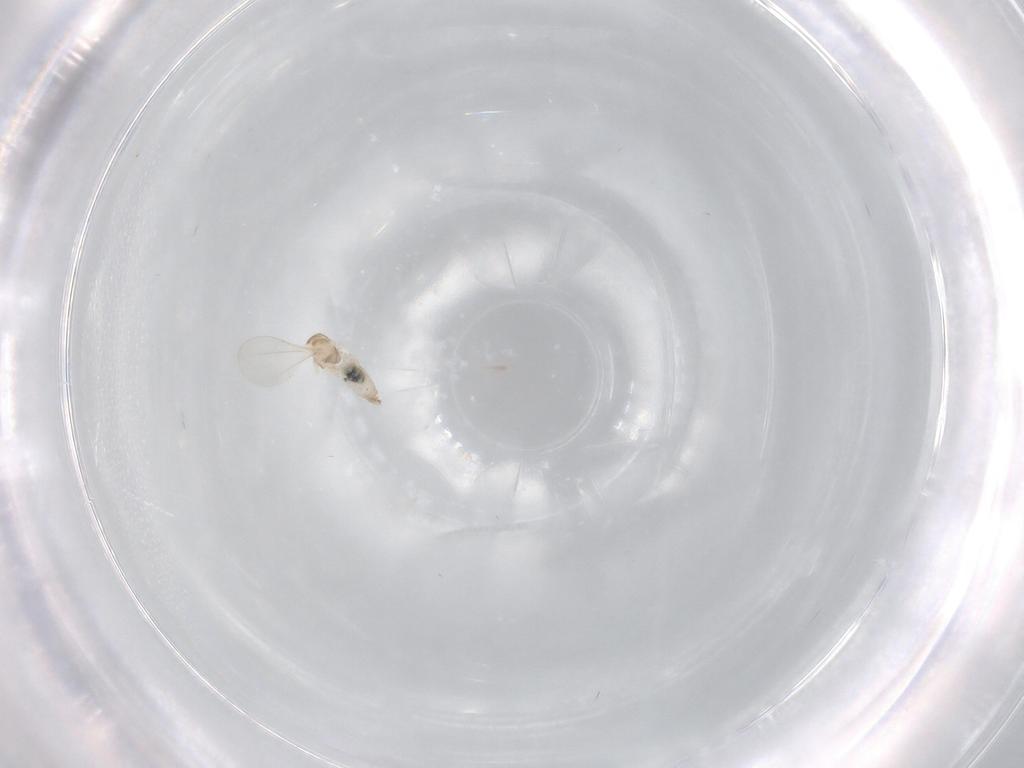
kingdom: Animalia
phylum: Arthropoda
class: Insecta
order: Diptera
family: Cecidomyiidae
